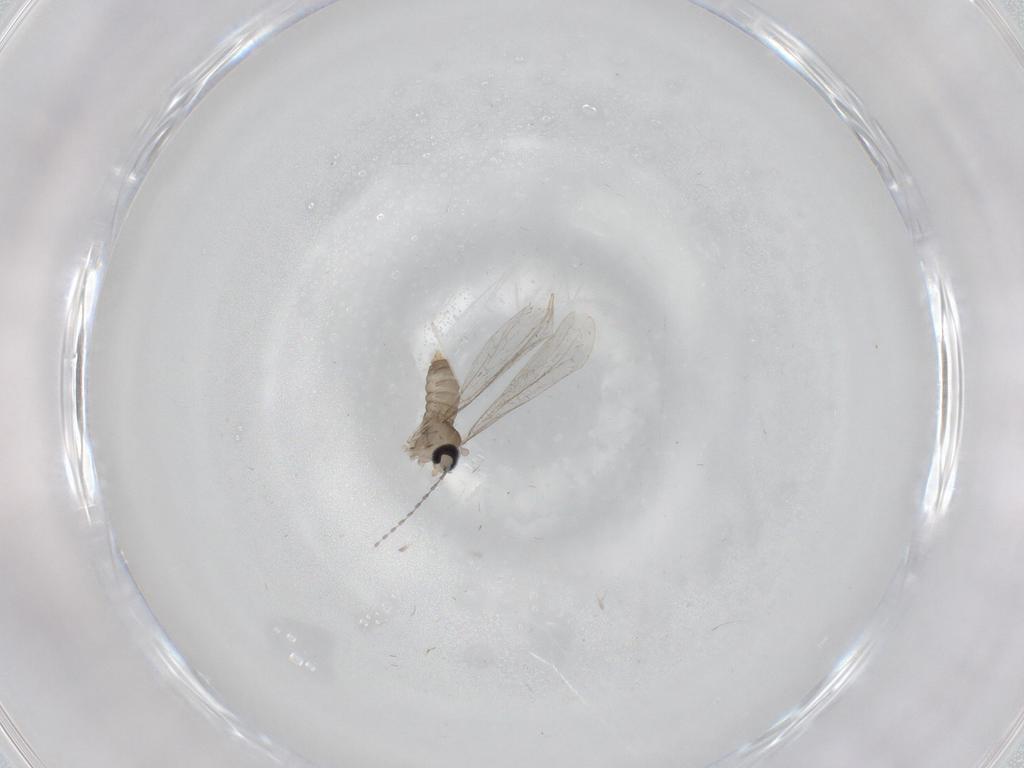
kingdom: Animalia
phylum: Arthropoda
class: Insecta
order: Diptera
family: Cecidomyiidae
